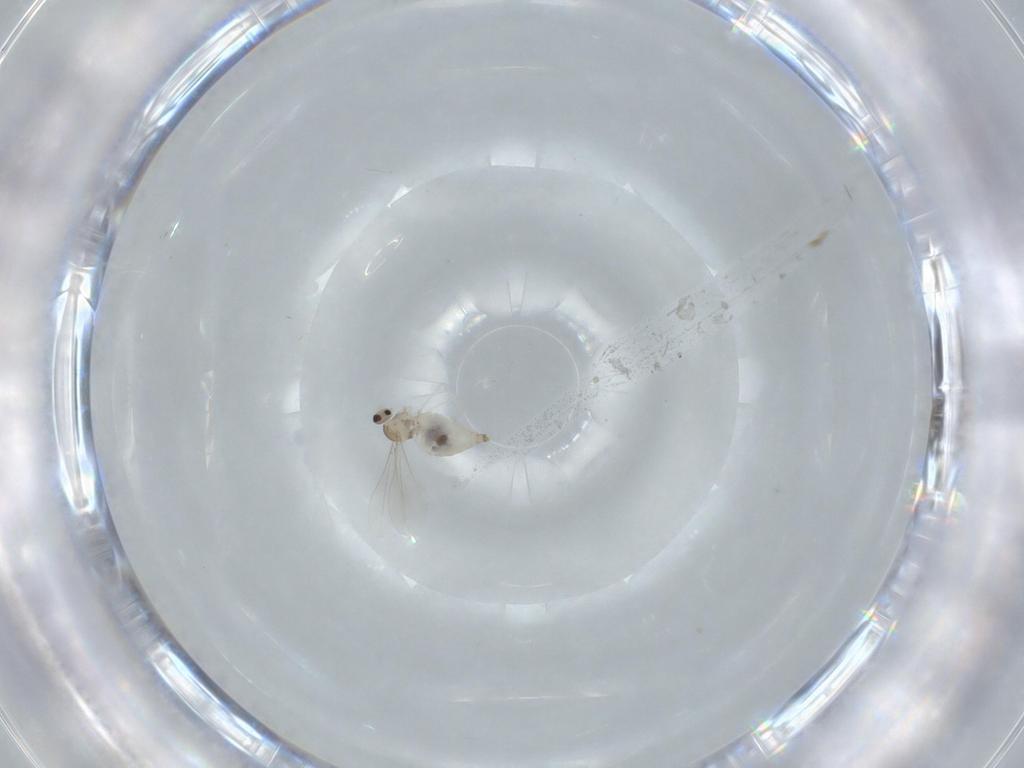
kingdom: Animalia
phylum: Arthropoda
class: Insecta
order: Diptera
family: Cecidomyiidae
